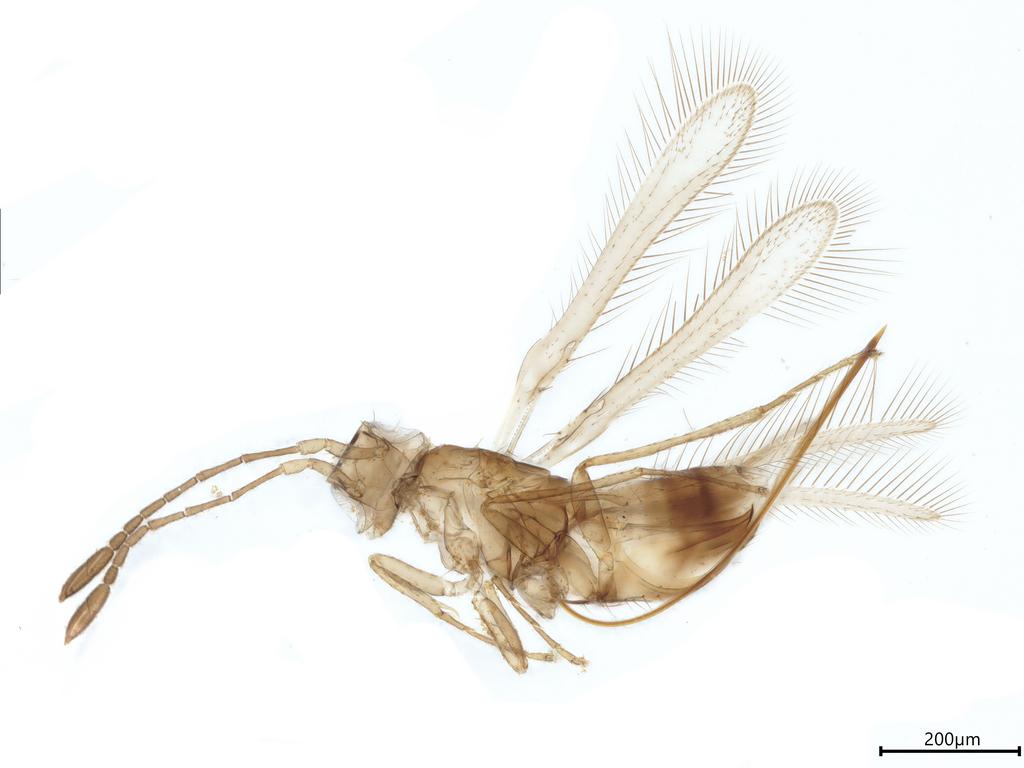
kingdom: Animalia
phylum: Arthropoda
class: Insecta
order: Hymenoptera
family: Mymaridae
